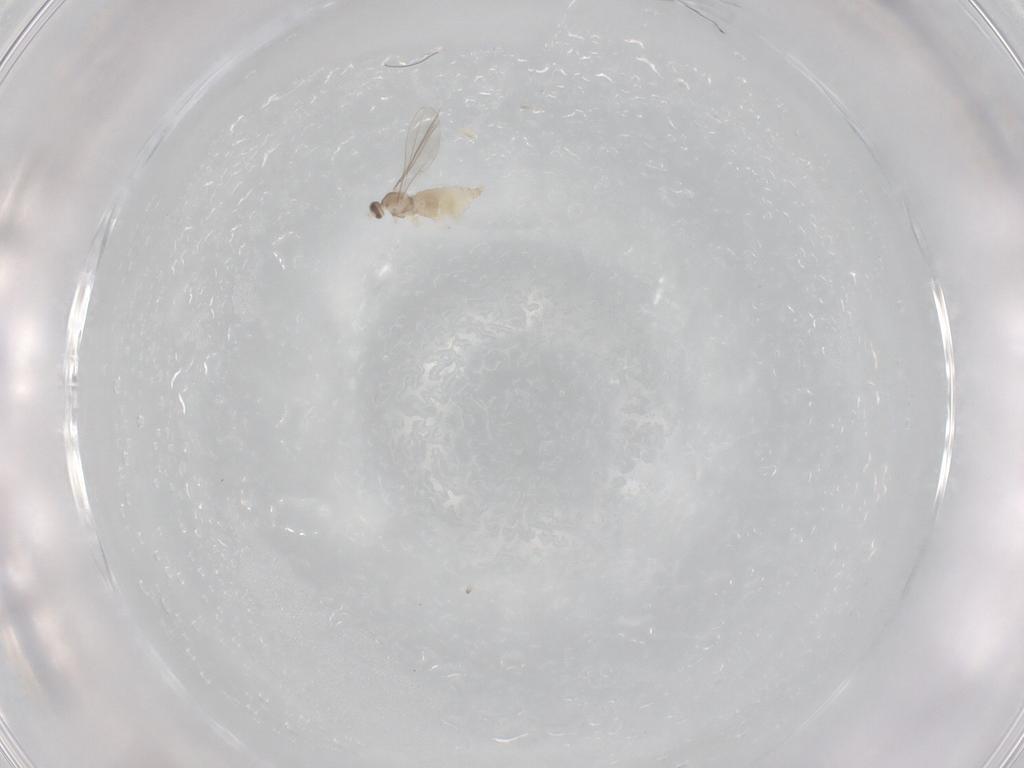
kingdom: Animalia
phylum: Arthropoda
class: Insecta
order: Diptera
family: Cecidomyiidae
